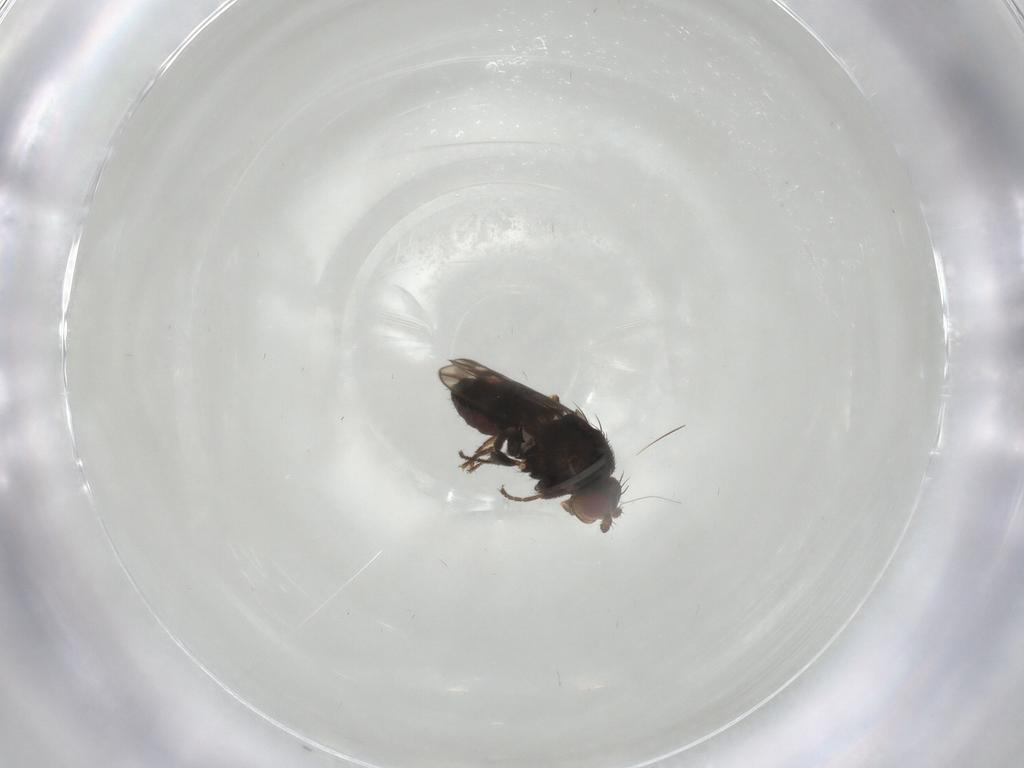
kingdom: Animalia
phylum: Arthropoda
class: Insecta
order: Diptera
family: Sphaeroceridae
